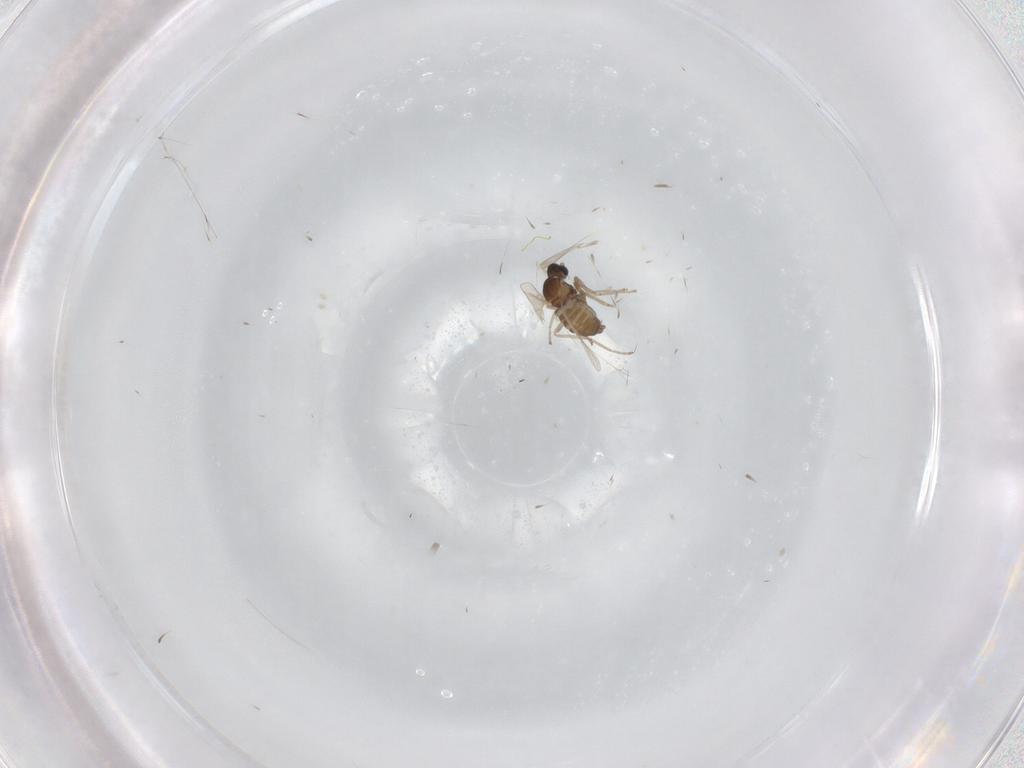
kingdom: Animalia
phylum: Arthropoda
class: Insecta
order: Diptera
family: Cecidomyiidae
